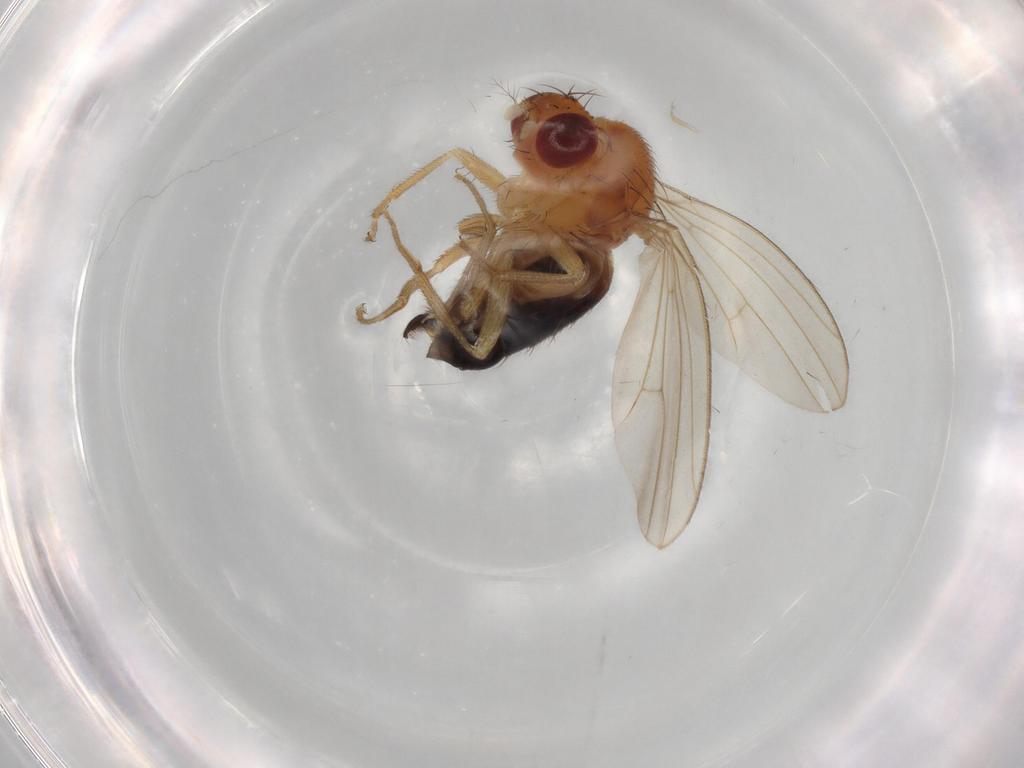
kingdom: Animalia
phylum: Arthropoda
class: Insecta
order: Diptera
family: Drosophilidae
